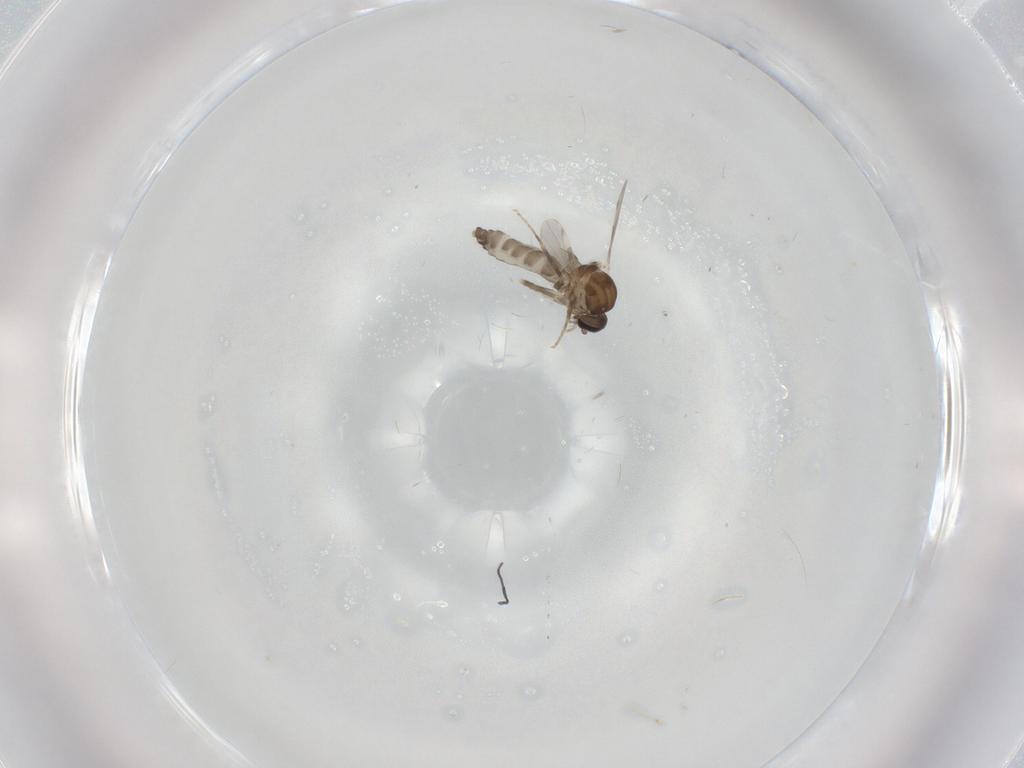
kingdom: Animalia
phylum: Arthropoda
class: Insecta
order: Diptera
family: Ceratopogonidae
